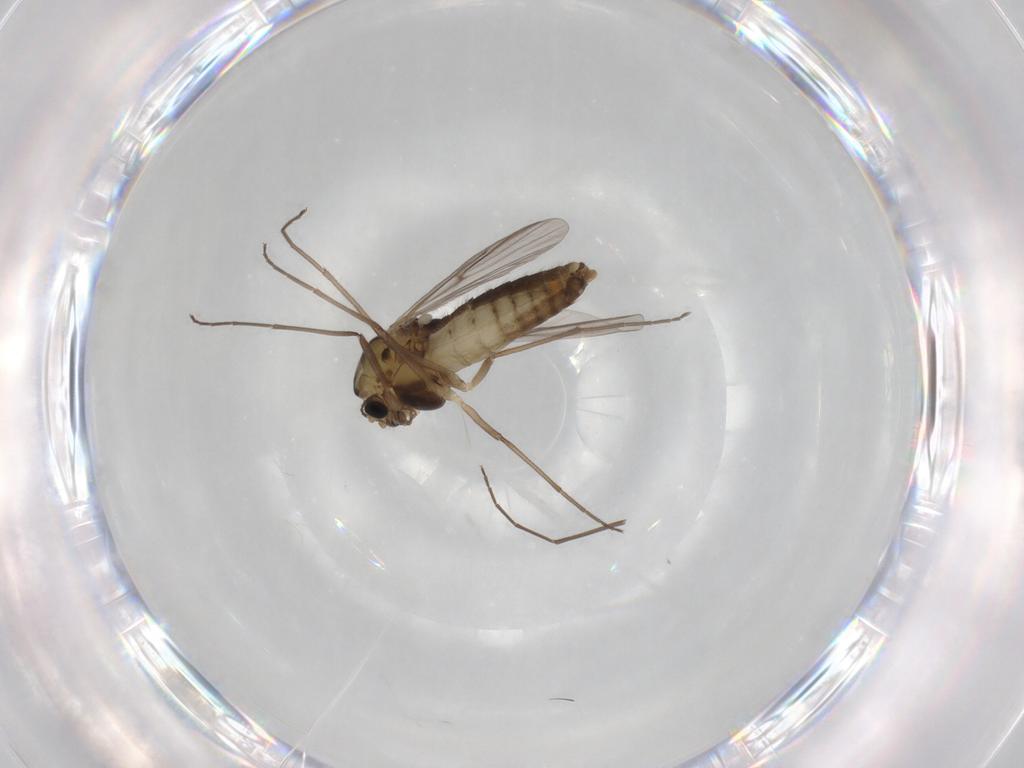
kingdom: Animalia
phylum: Arthropoda
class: Insecta
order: Diptera
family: Chironomidae
